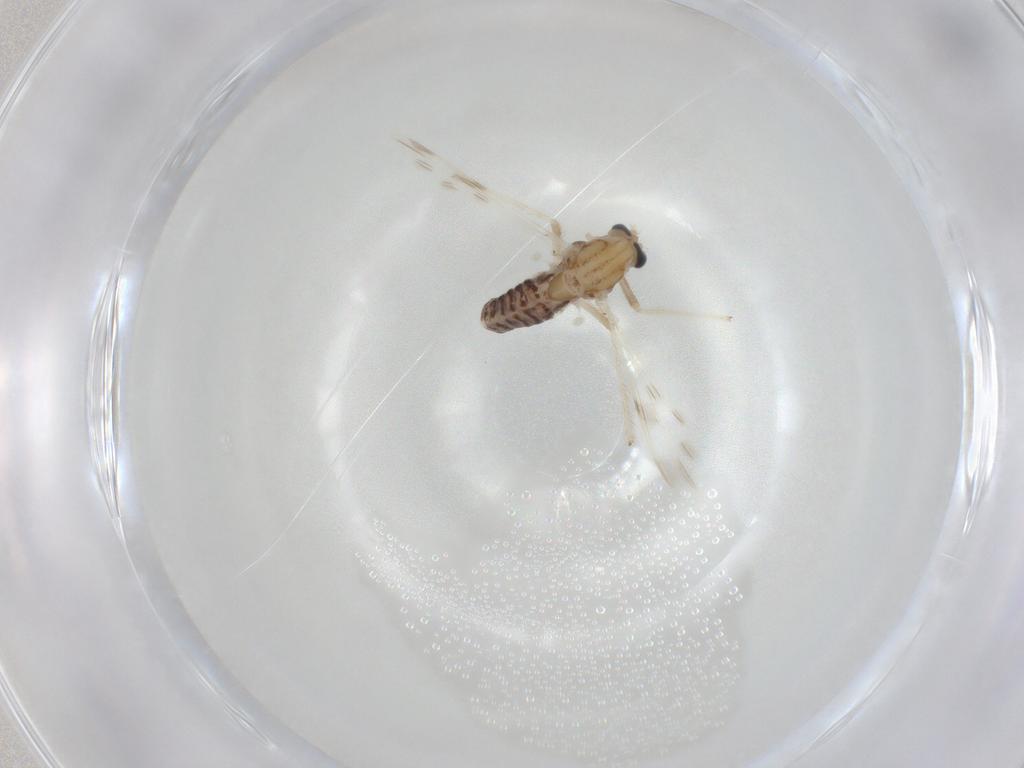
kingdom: Animalia
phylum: Arthropoda
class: Insecta
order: Diptera
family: Chironomidae
